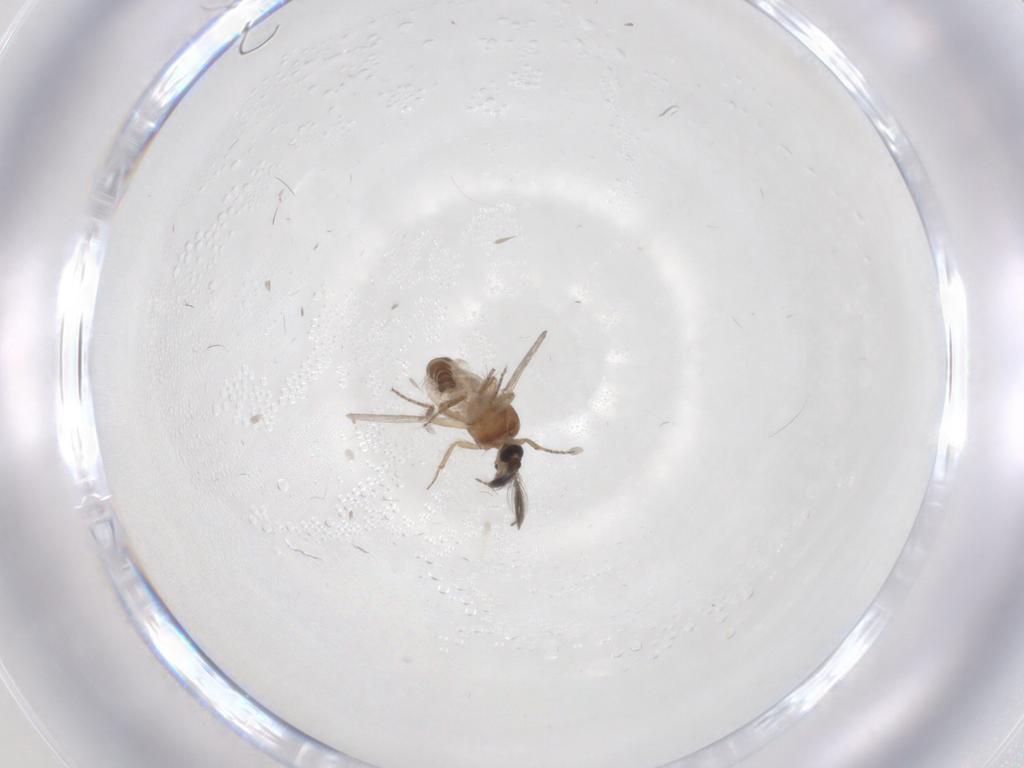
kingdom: Animalia
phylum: Arthropoda
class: Insecta
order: Diptera
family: Ceratopogonidae
